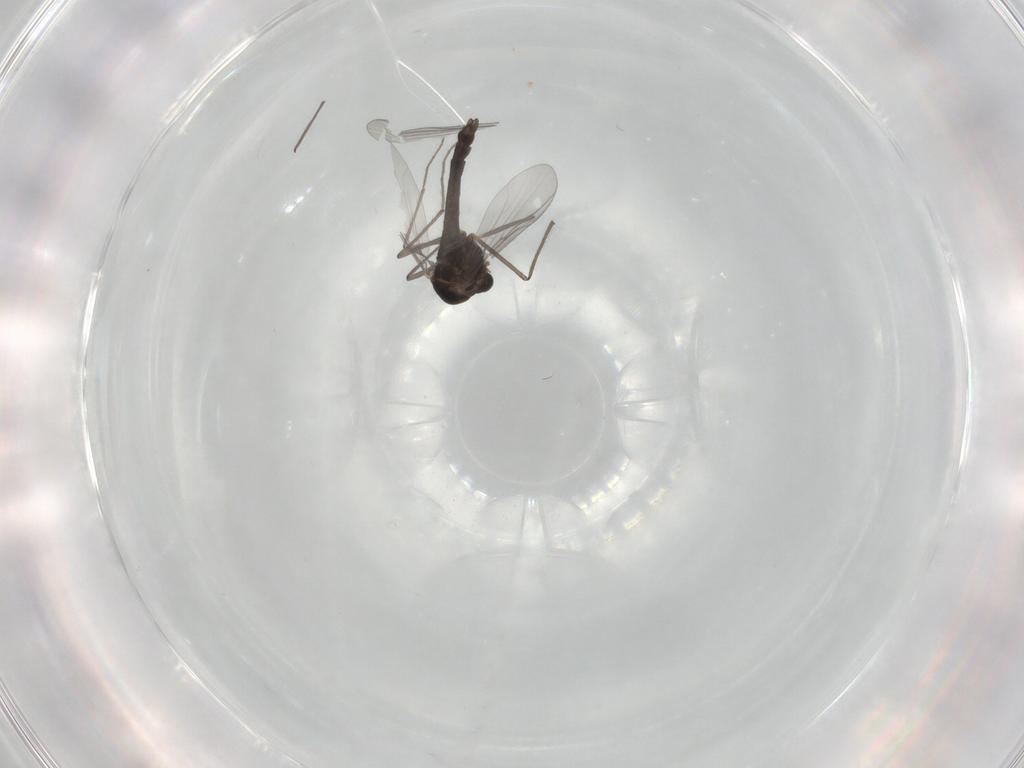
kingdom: Animalia
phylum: Arthropoda
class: Insecta
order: Diptera
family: Chironomidae
